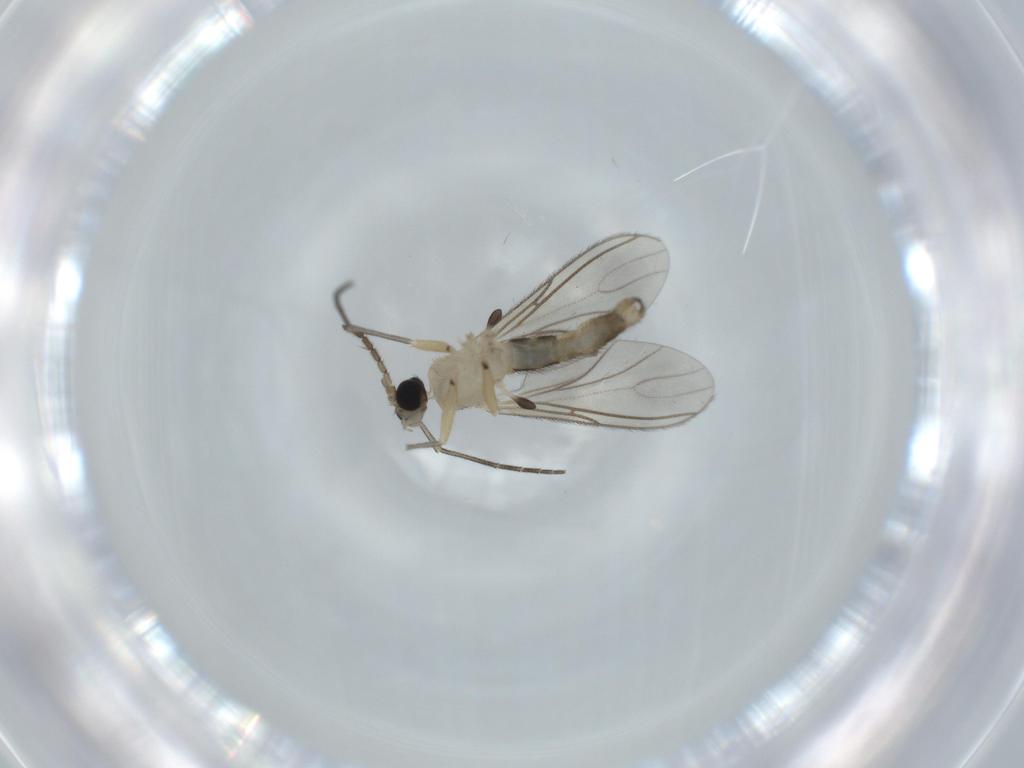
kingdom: Animalia
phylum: Arthropoda
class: Insecta
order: Diptera
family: Sciaridae
